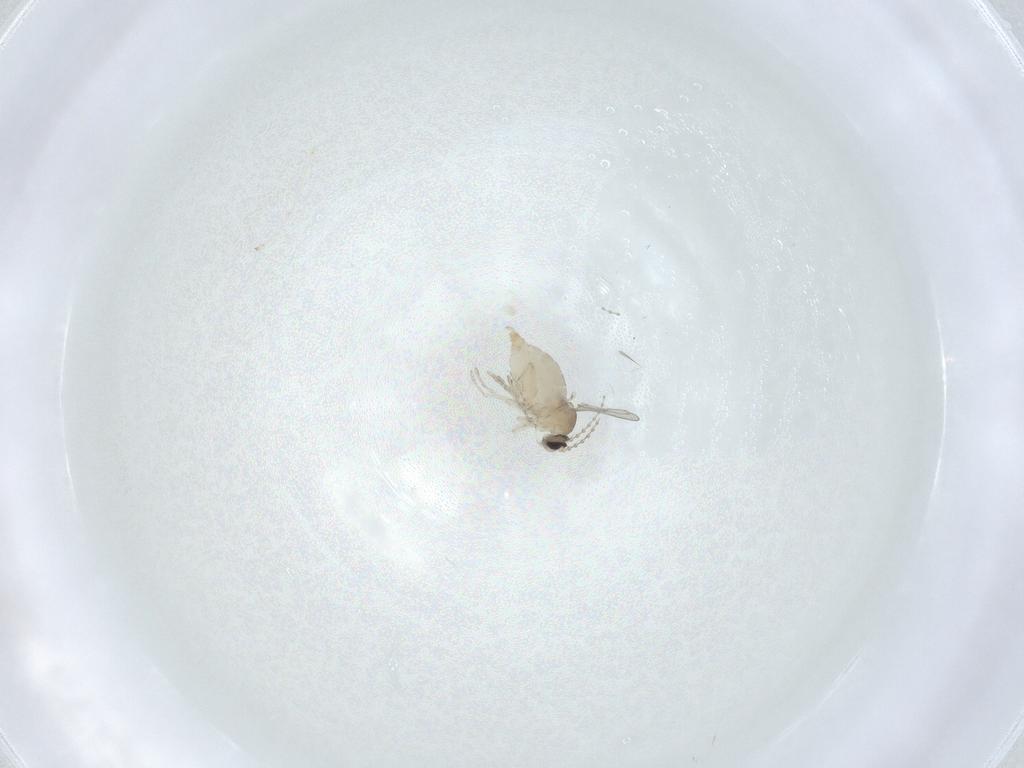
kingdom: Animalia
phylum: Arthropoda
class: Insecta
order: Diptera
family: Cecidomyiidae
